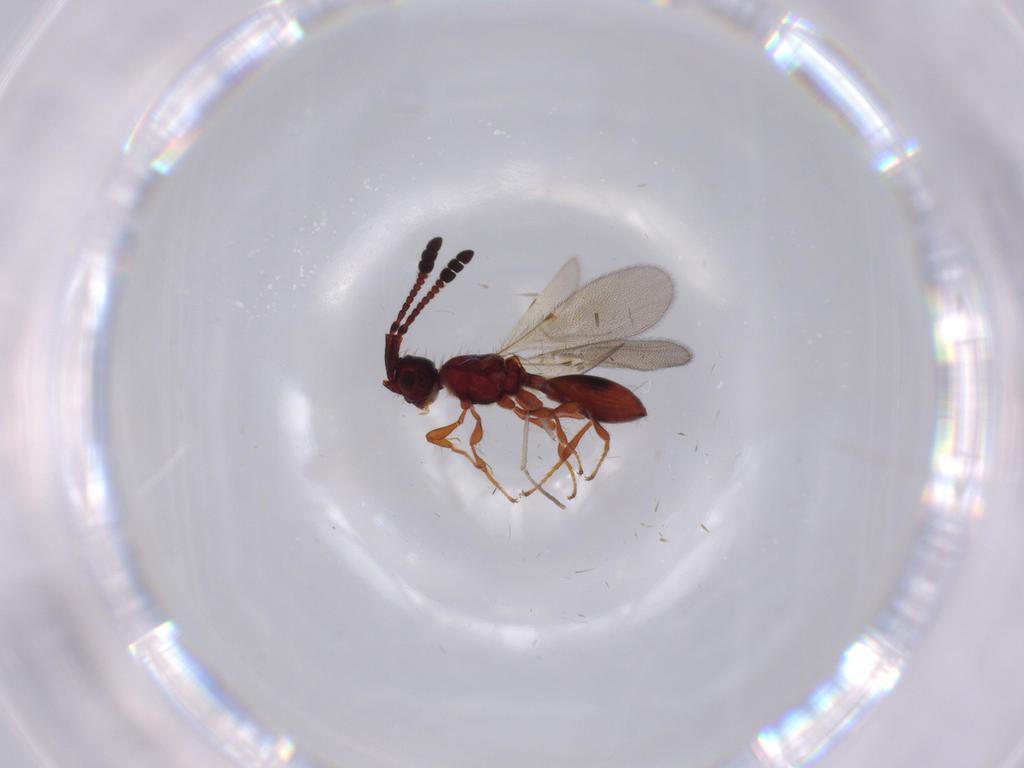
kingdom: Animalia
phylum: Arthropoda
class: Insecta
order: Hymenoptera
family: Diapriidae
